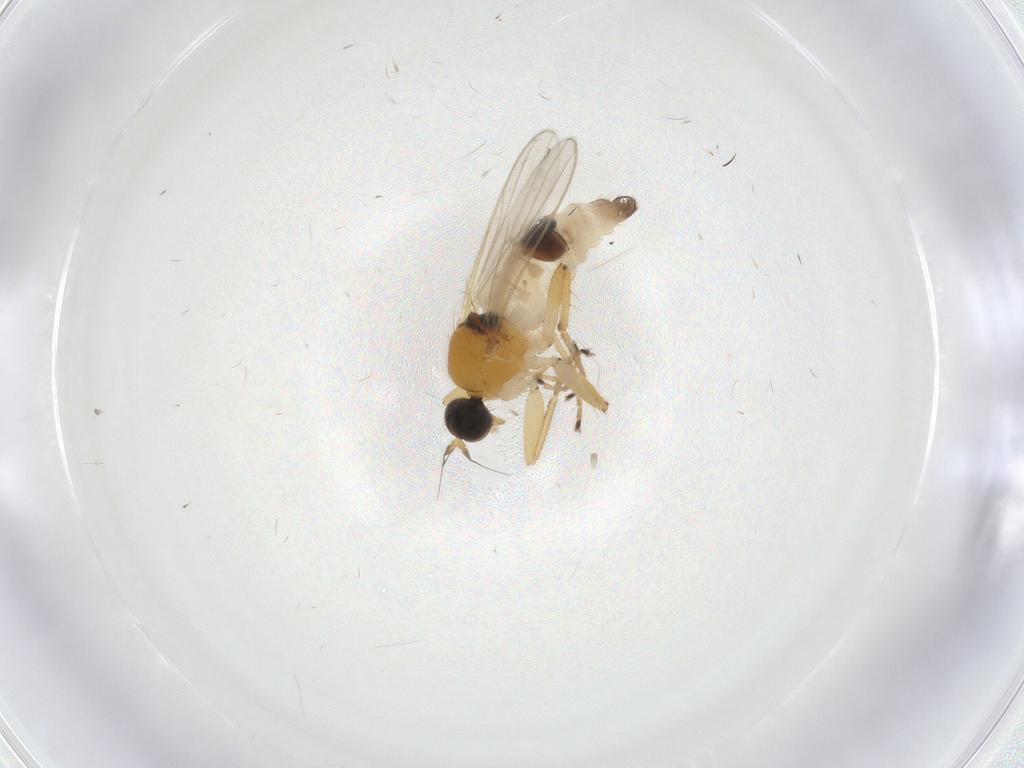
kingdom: Animalia
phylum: Arthropoda
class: Insecta
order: Diptera
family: Hybotidae
